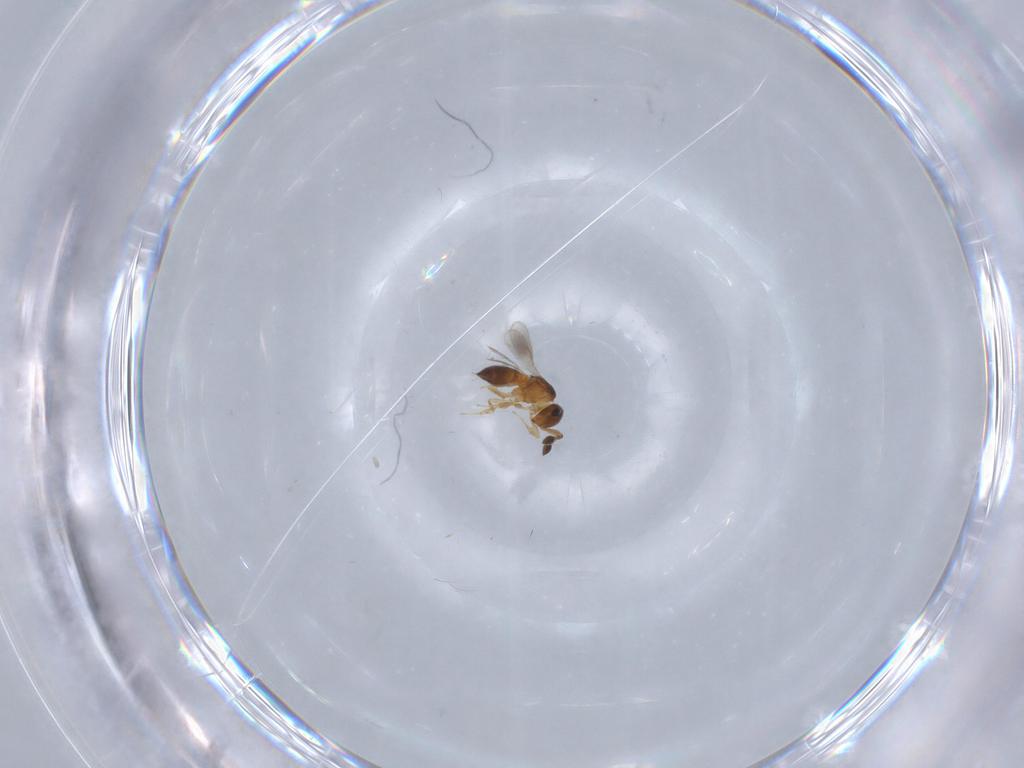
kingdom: Animalia
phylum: Arthropoda
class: Insecta
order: Hymenoptera
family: Scelionidae
